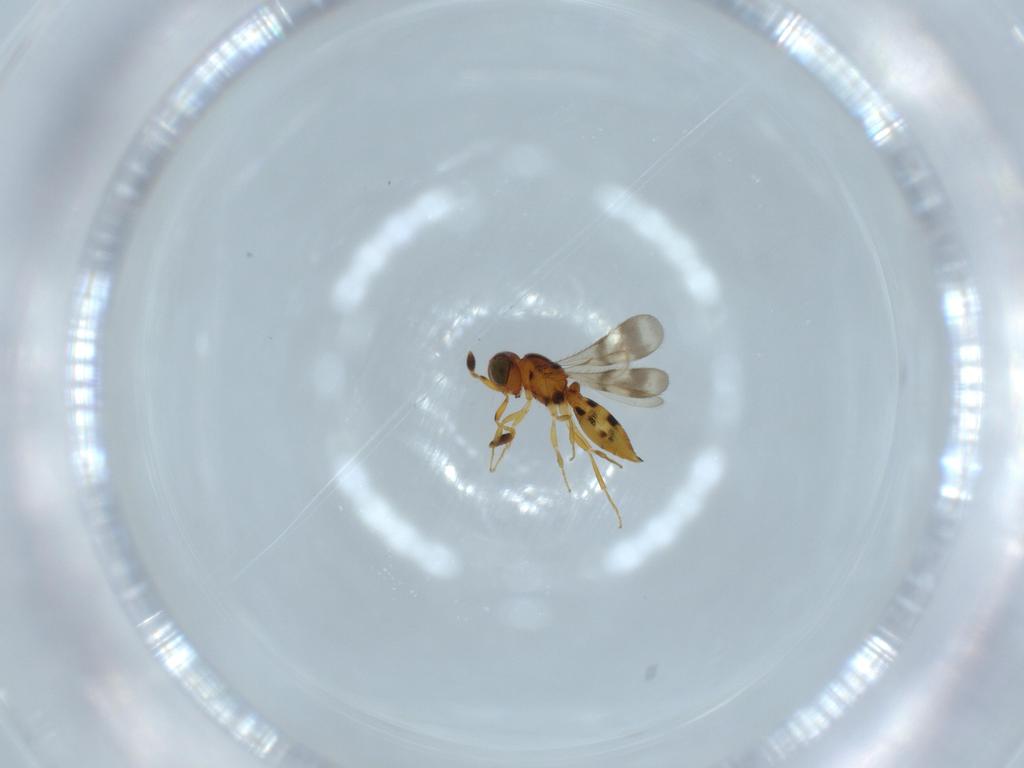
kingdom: Animalia
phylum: Arthropoda
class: Insecta
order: Hymenoptera
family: Scelionidae
